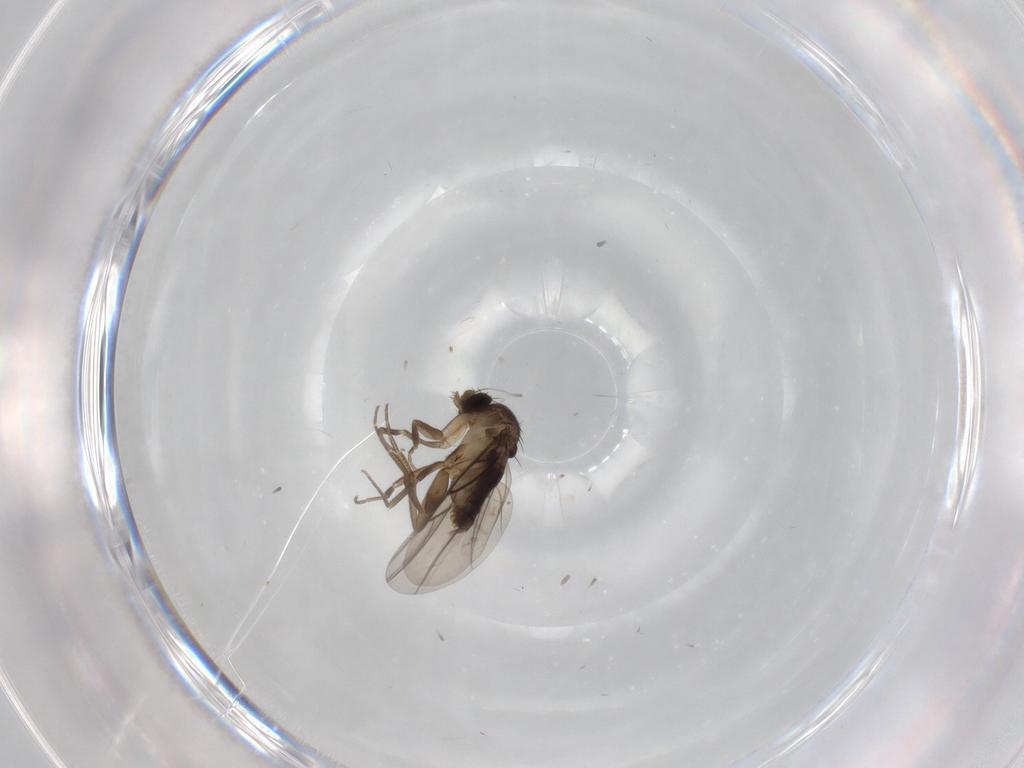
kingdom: Animalia
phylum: Arthropoda
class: Insecta
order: Diptera
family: Phoridae
